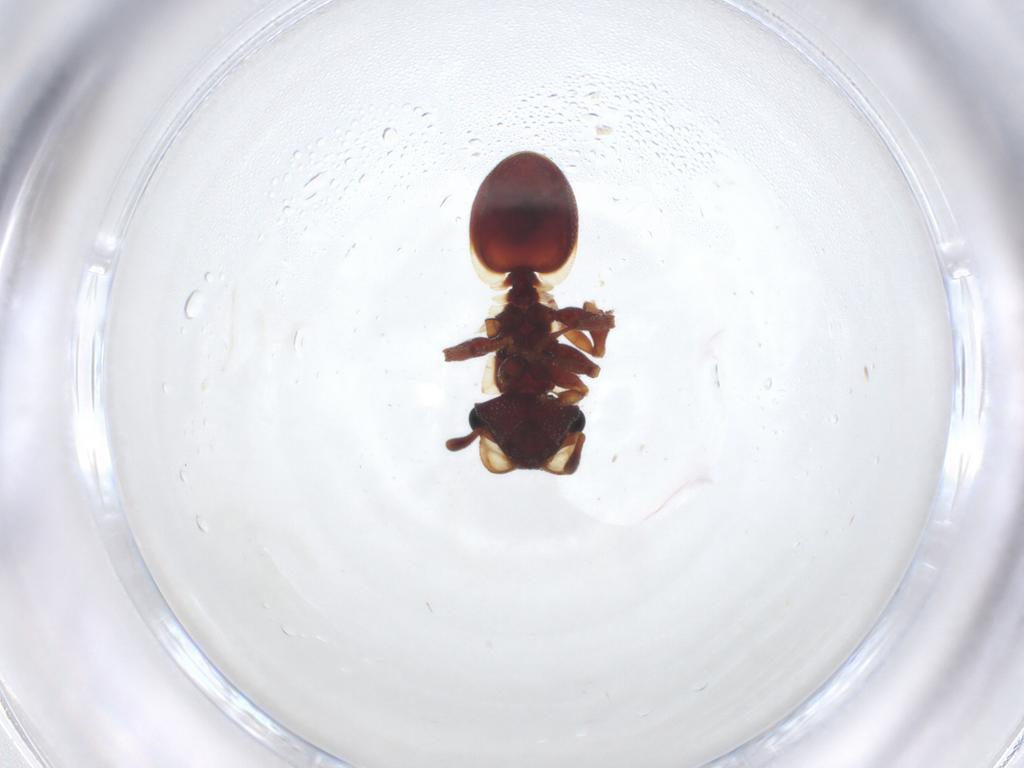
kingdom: Animalia
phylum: Arthropoda
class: Insecta
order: Hymenoptera
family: Formicidae
